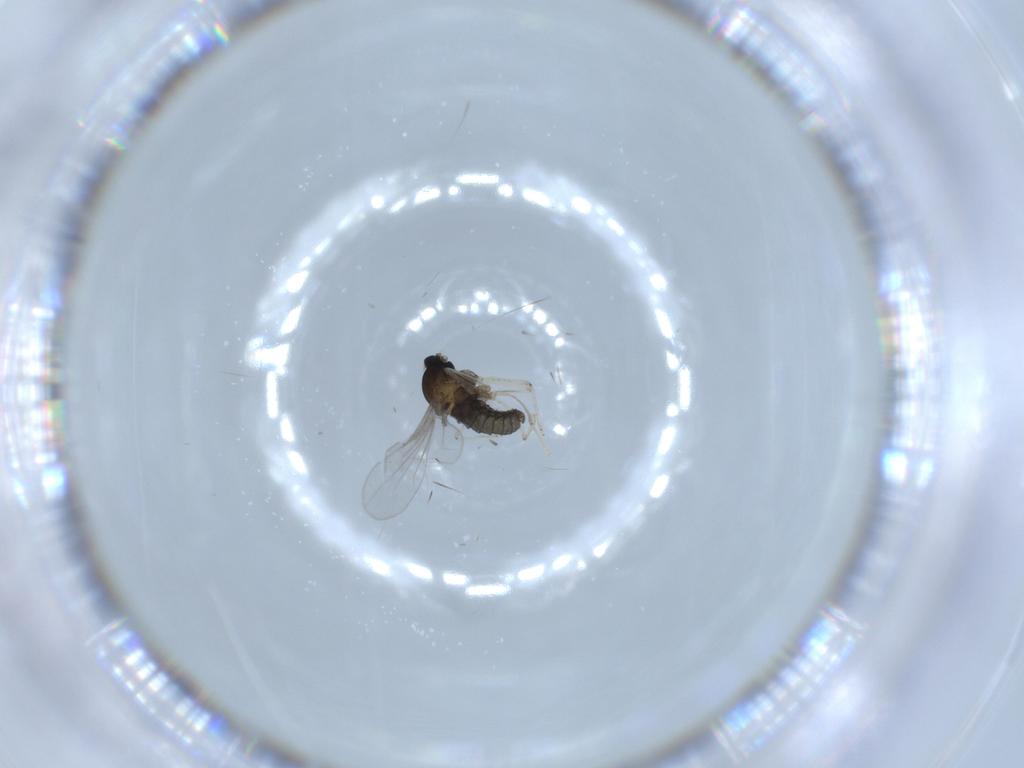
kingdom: Animalia
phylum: Arthropoda
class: Insecta
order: Diptera
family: Cecidomyiidae
